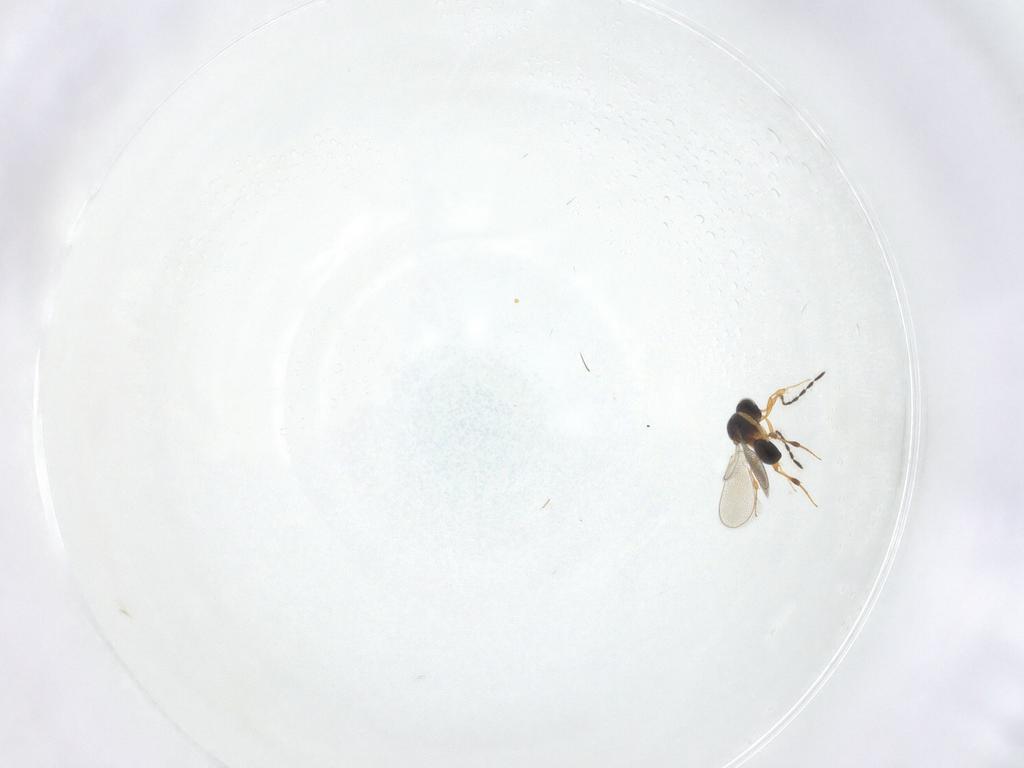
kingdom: Animalia
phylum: Arthropoda
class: Insecta
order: Hymenoptera
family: Platygastridae
